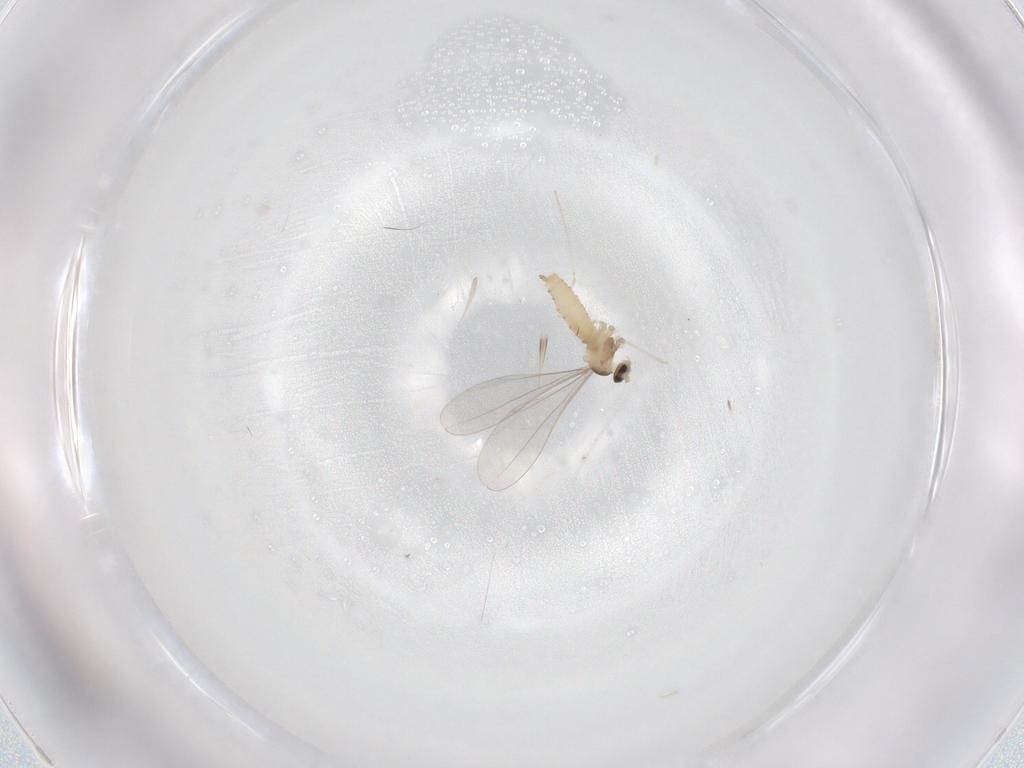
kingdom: Animalia
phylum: Arthropoda
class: Insecta
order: Diptera
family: Cecidomyiidae
